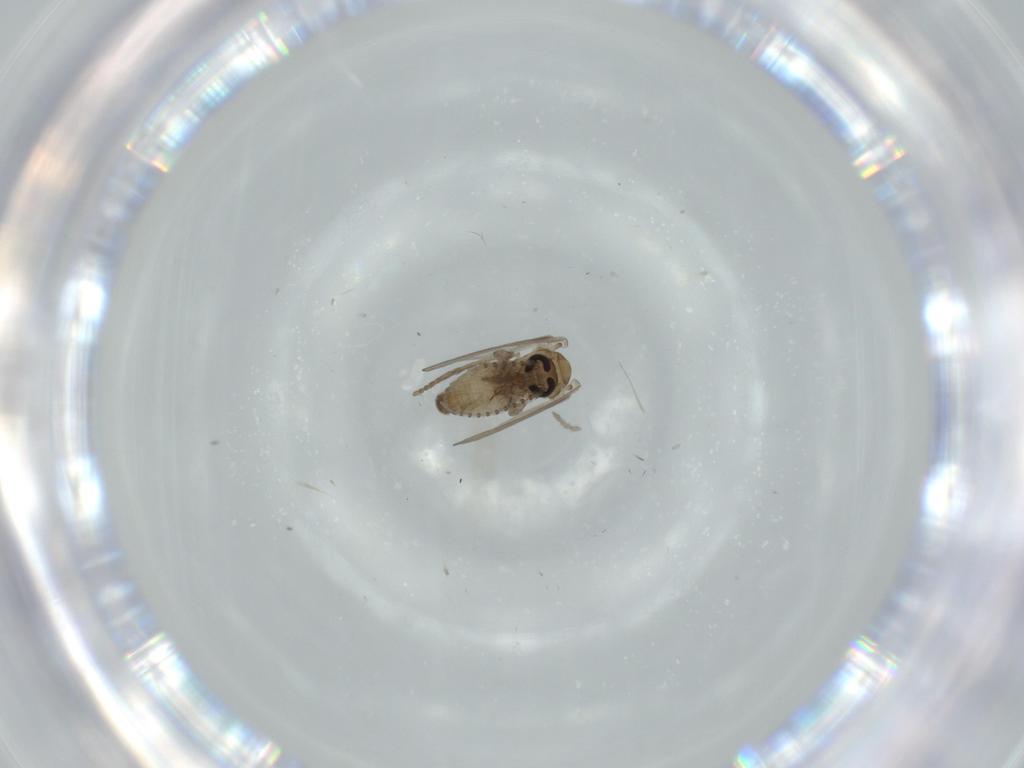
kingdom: Animalia
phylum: Arthropoda
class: Insecta
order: Diptera
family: Psychodidae
